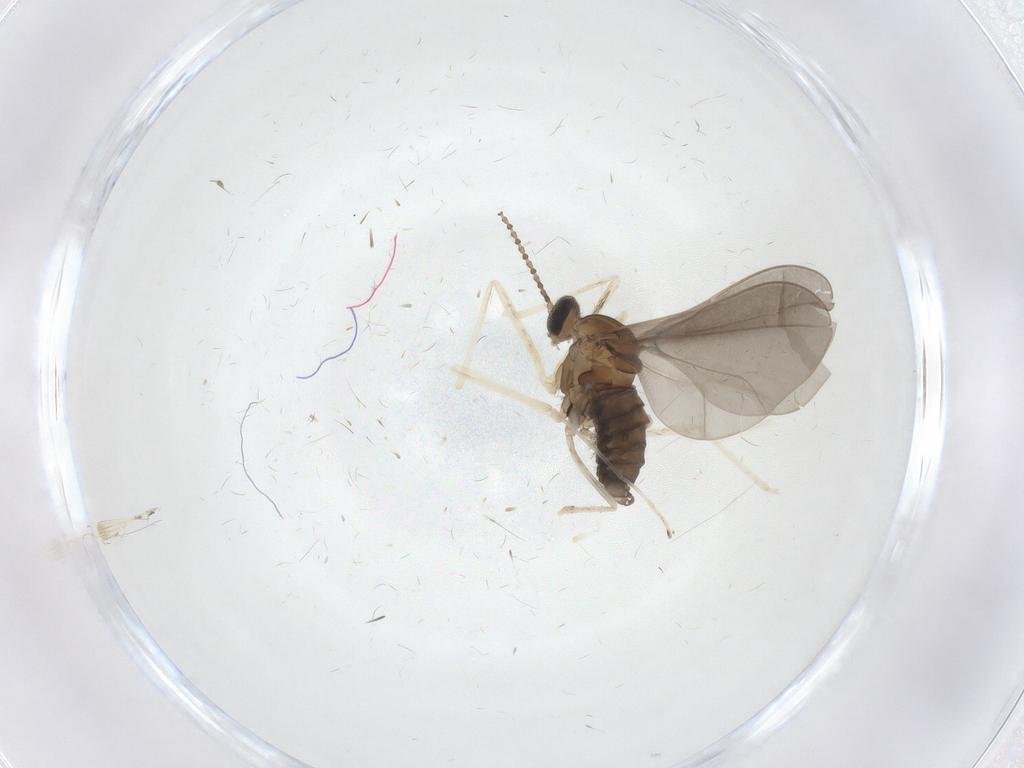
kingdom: Animalia
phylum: Arthropoda
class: Insecta
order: Diptera
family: Cecidomyiidae
